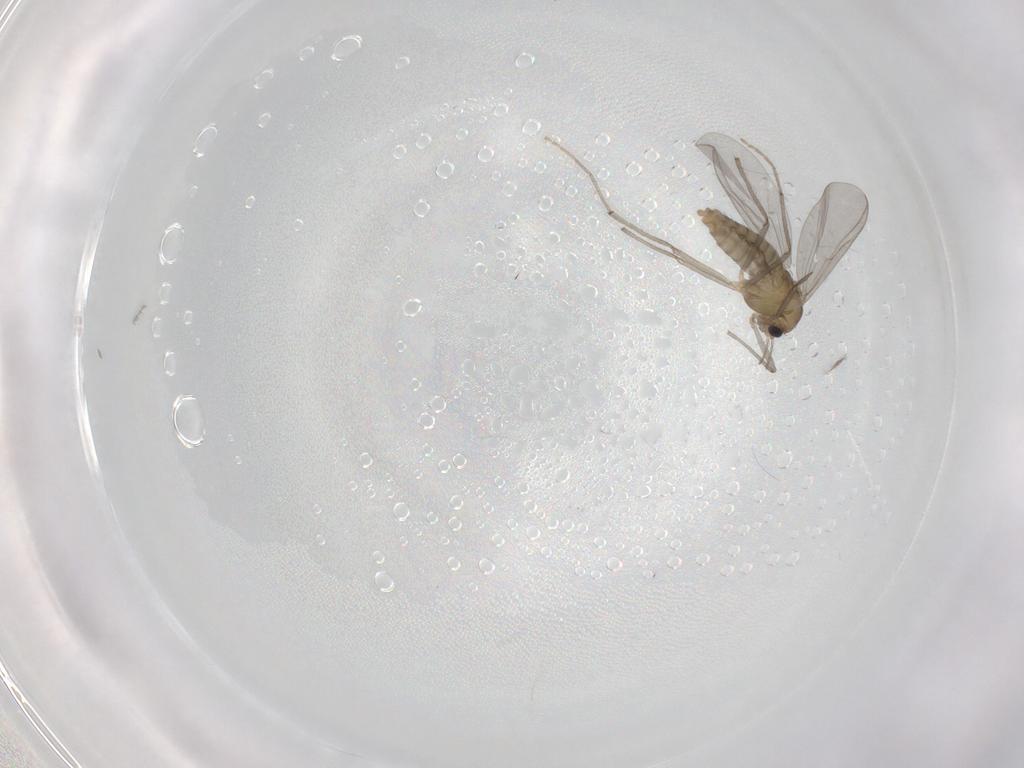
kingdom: Animalia
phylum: Arthropoda
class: Insecta
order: Diptera
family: Chironomidae
